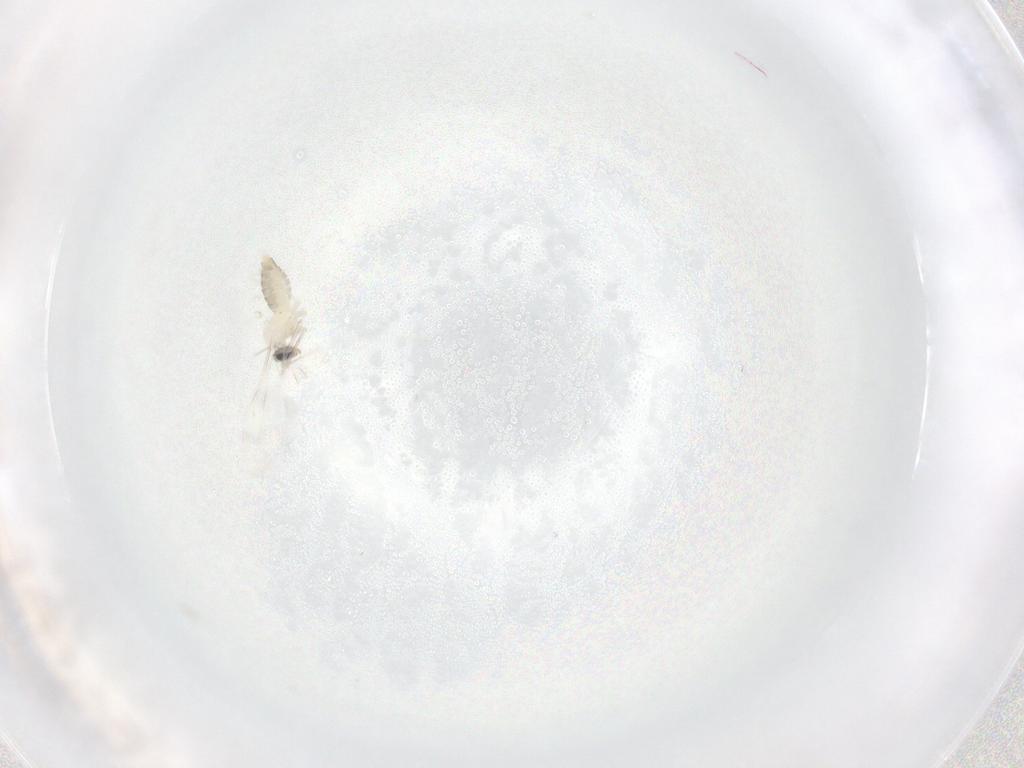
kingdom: Animalia
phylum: Arthropoda
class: Insecta
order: Diptera
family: Cecidomyiidae
